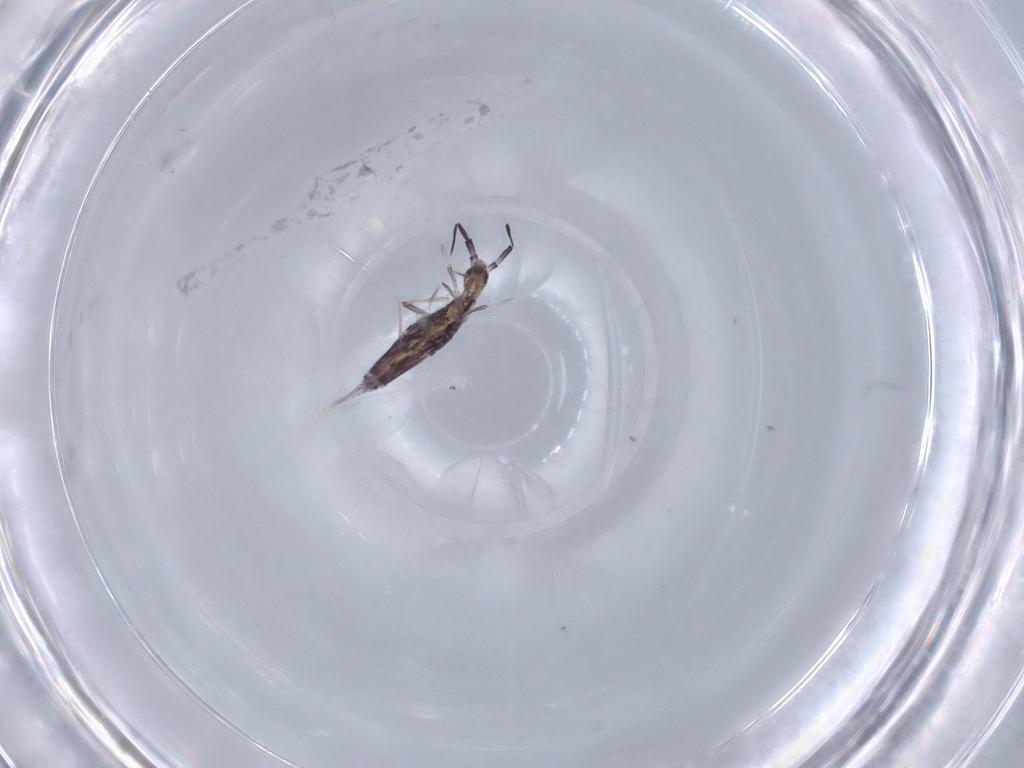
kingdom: Animalia
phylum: Arthropoda
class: Collembola
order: Poduromorpha
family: Hypogastruridae
